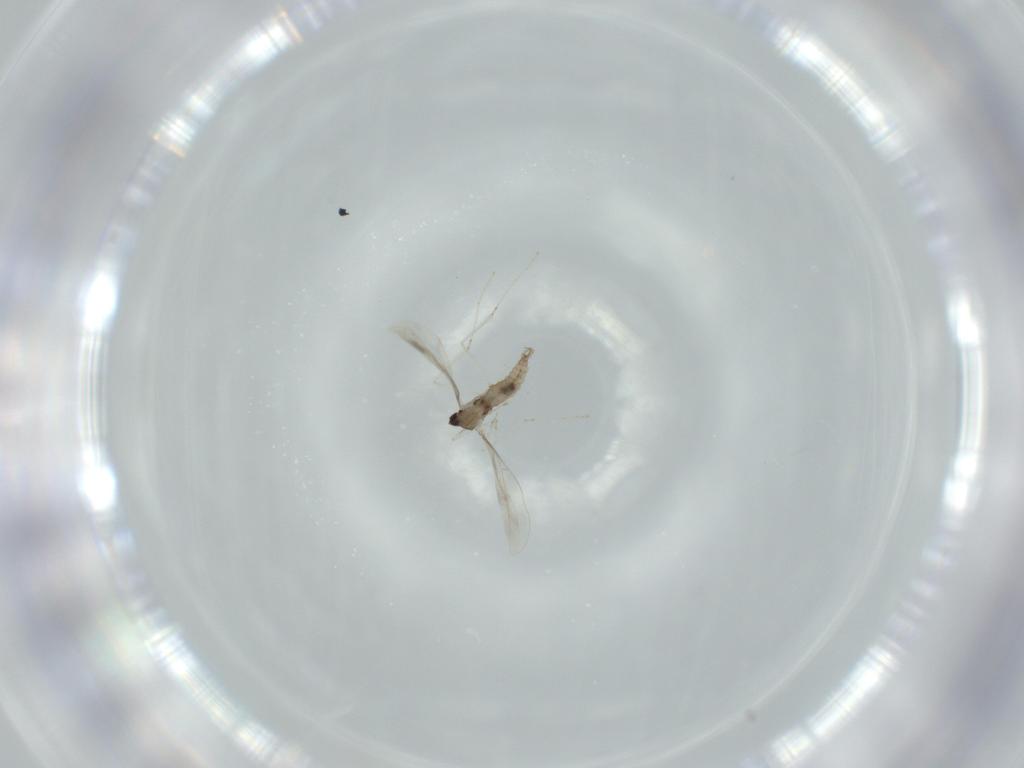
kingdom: Animalia
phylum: Arthropoda
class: Insecta
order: Diptera
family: Cecidomyiidae
